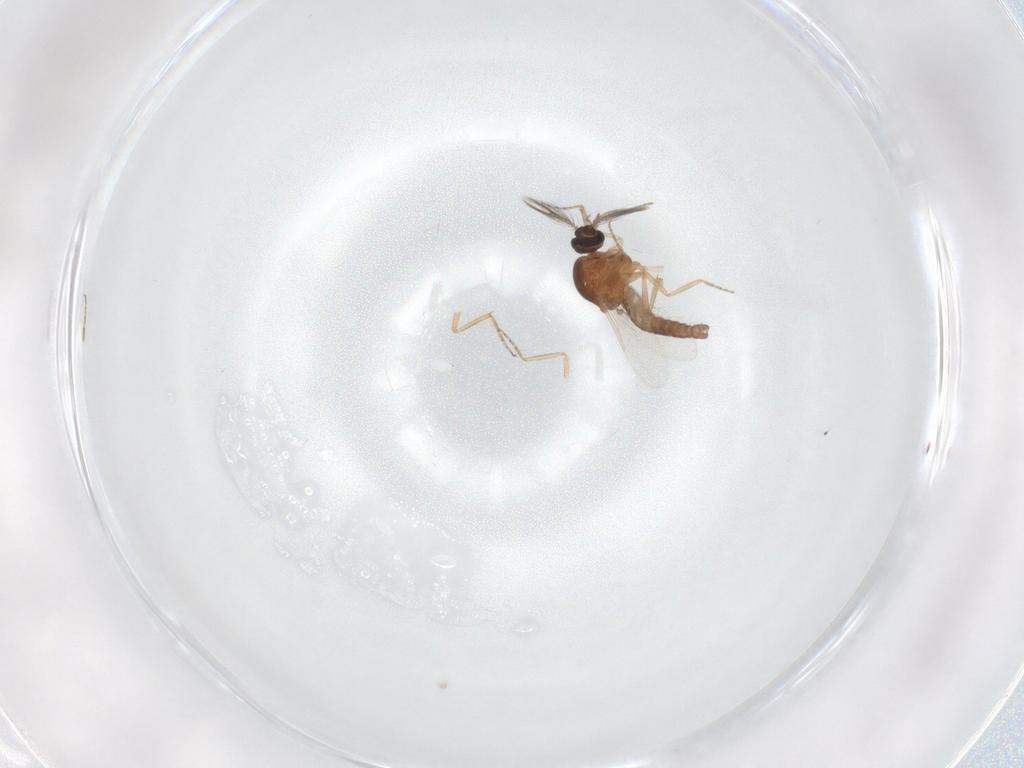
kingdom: Animalia
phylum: Arthropoda
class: Insecta
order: Diptera
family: Ceratopogonidae
